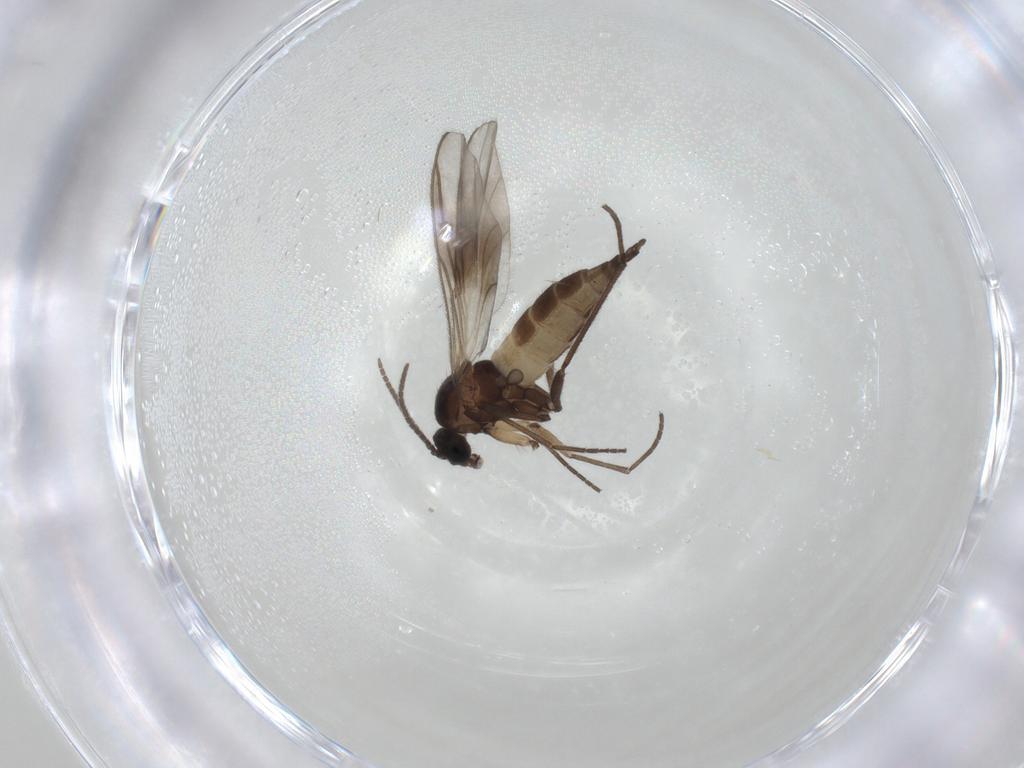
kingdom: Animalia
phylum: Arthropoda
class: Insecta
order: Diptera
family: Sciaridae
